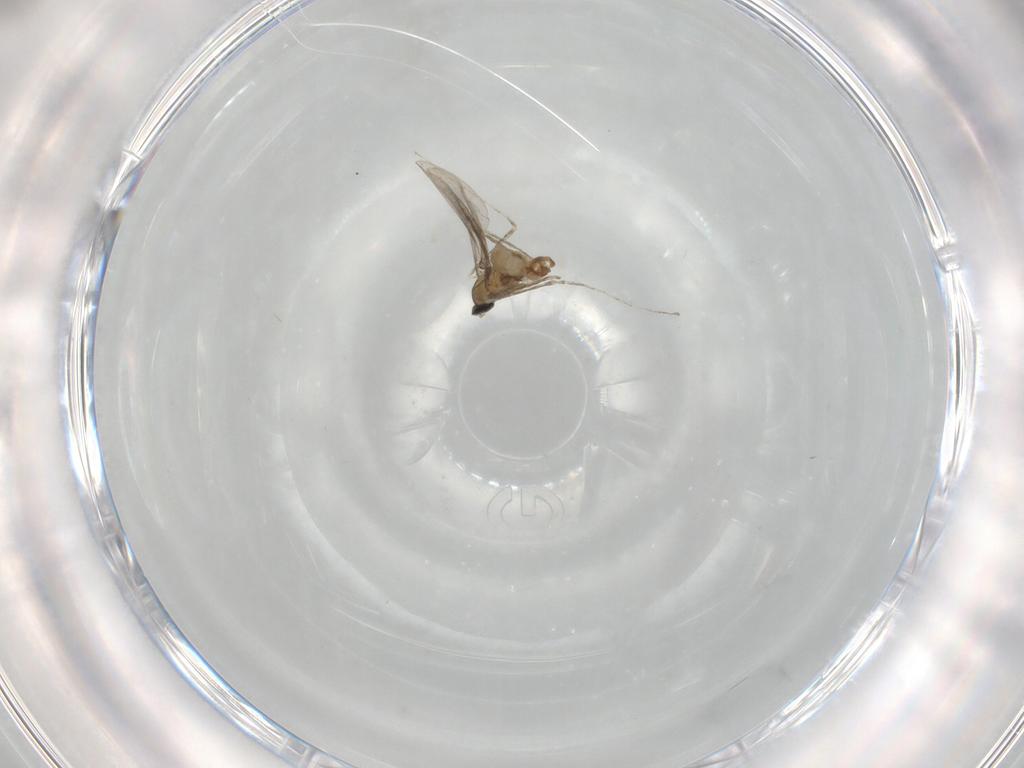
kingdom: Animalia
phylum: Arthropoda
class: Insecta
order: Diptera
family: Cecidomyiidae
